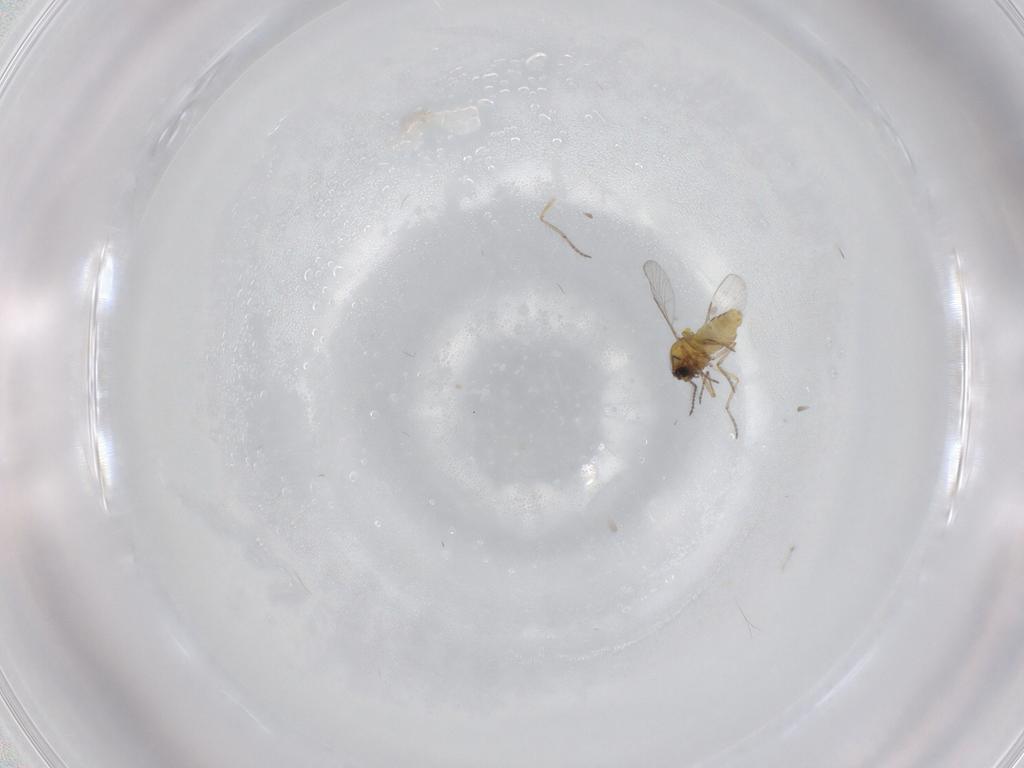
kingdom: Animalia
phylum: Arthropoda
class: Insecta
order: Diptera
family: Ceratopogonidae
